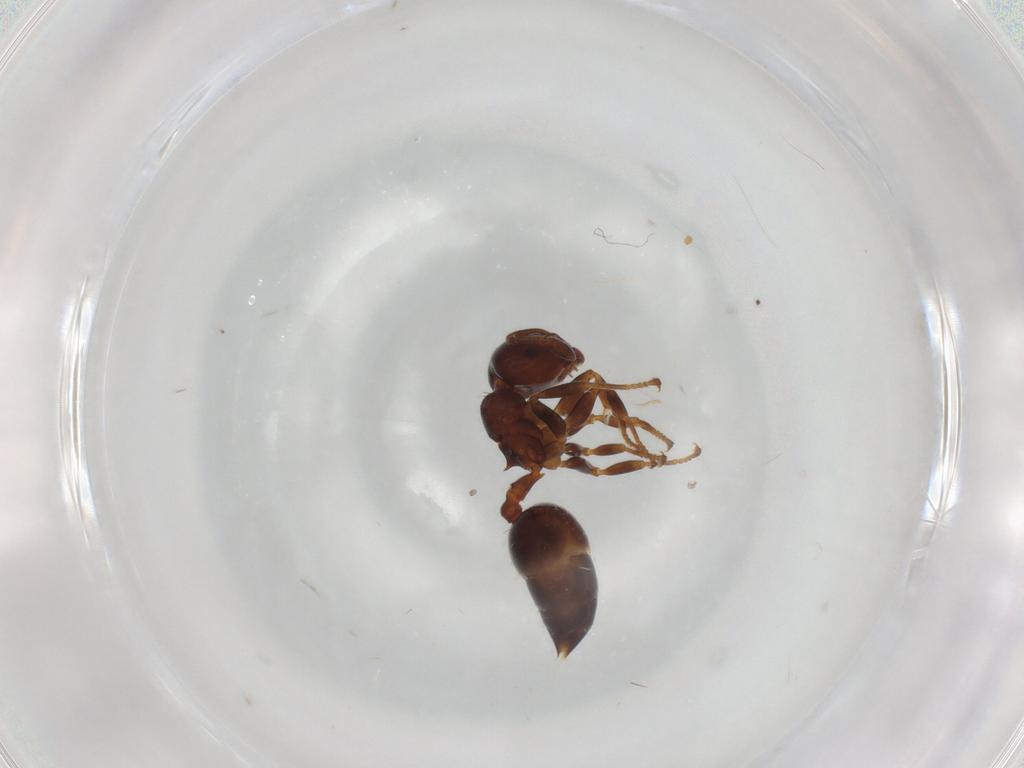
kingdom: Animalia
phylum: Arthropoda
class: Insecta
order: Hymenoptera
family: Formicidae
